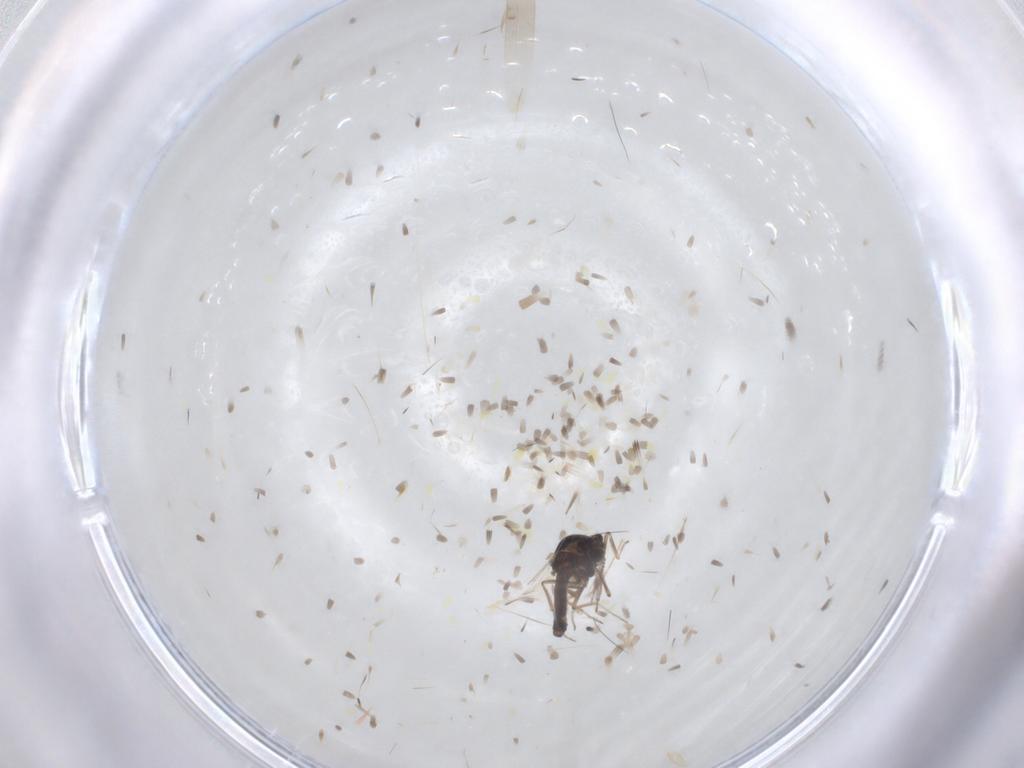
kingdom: Animalia
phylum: Arthropoda
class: Insecta
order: Diptera
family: Ceratopogonidae
